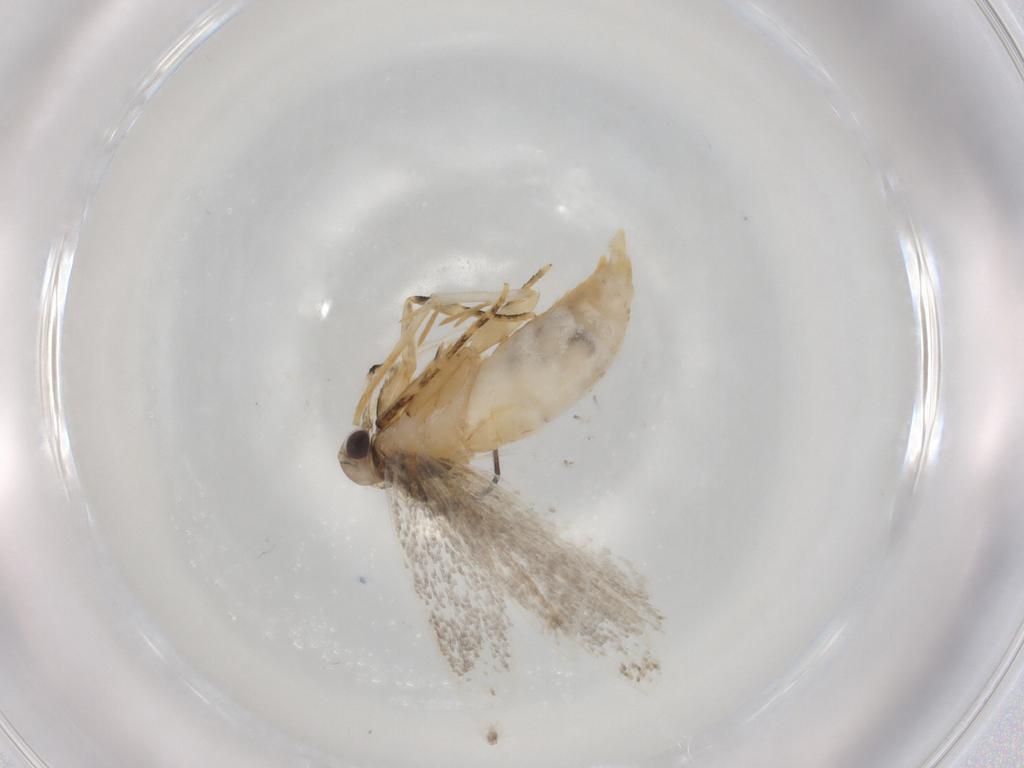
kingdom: Animalia
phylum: Arthropoda
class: Insecta
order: Lepidoptera
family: Autostichidae
